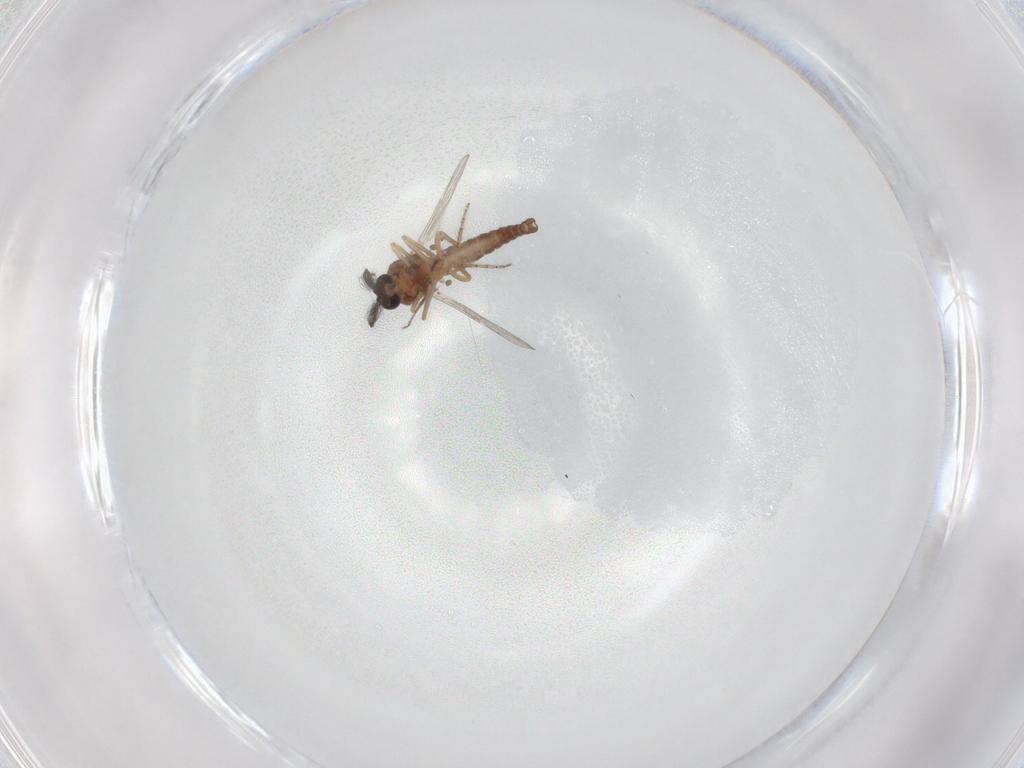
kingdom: Animalia
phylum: Arthropoda
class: Insecta
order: Diptera
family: Ceratopogonidae
